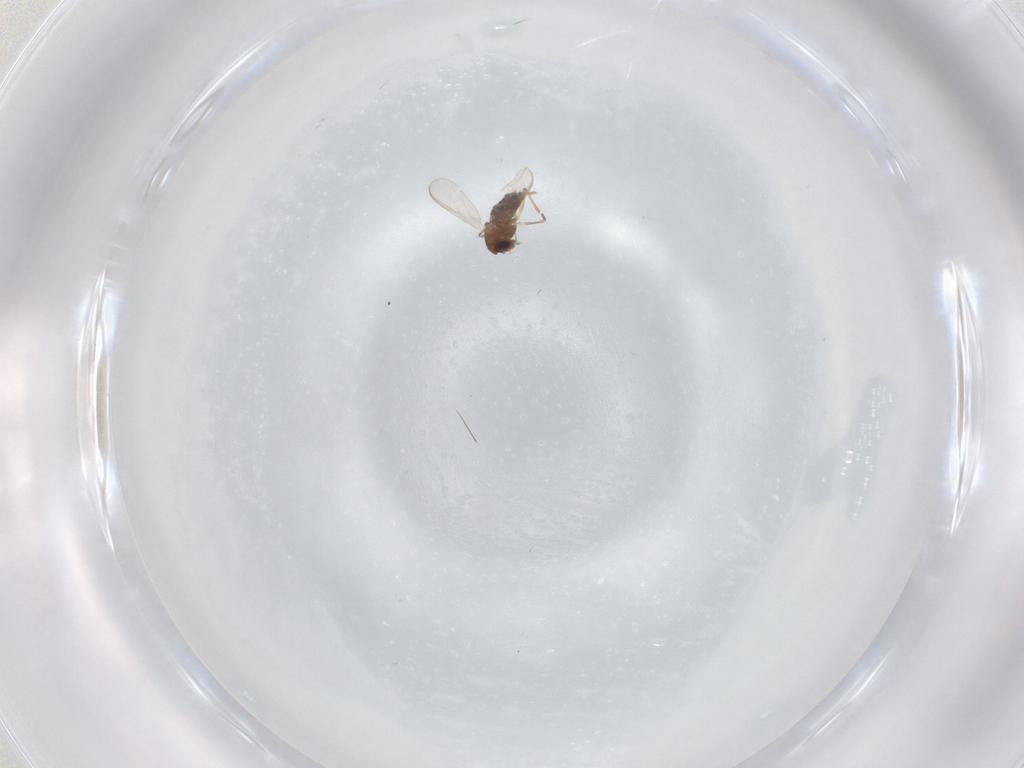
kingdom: Animalia
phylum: Arthropoda
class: Insecta
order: Diptera
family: Chironomidae
